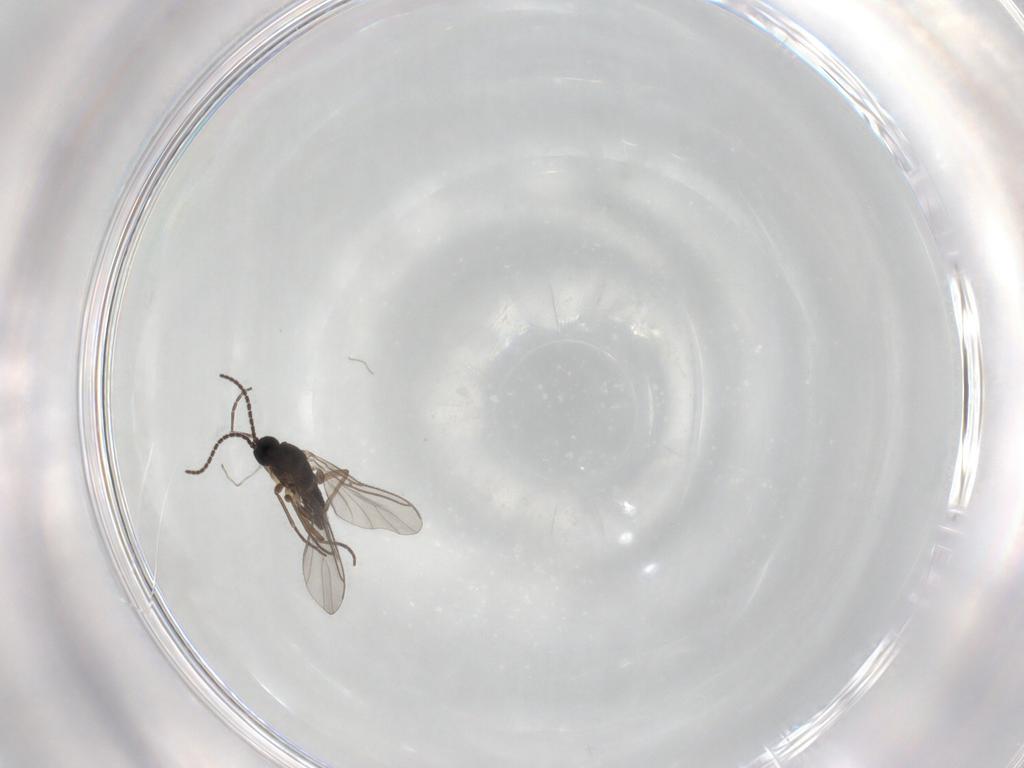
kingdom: Animalia
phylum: Arthropoda
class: Insecta
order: Diptera
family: Sciaridae
